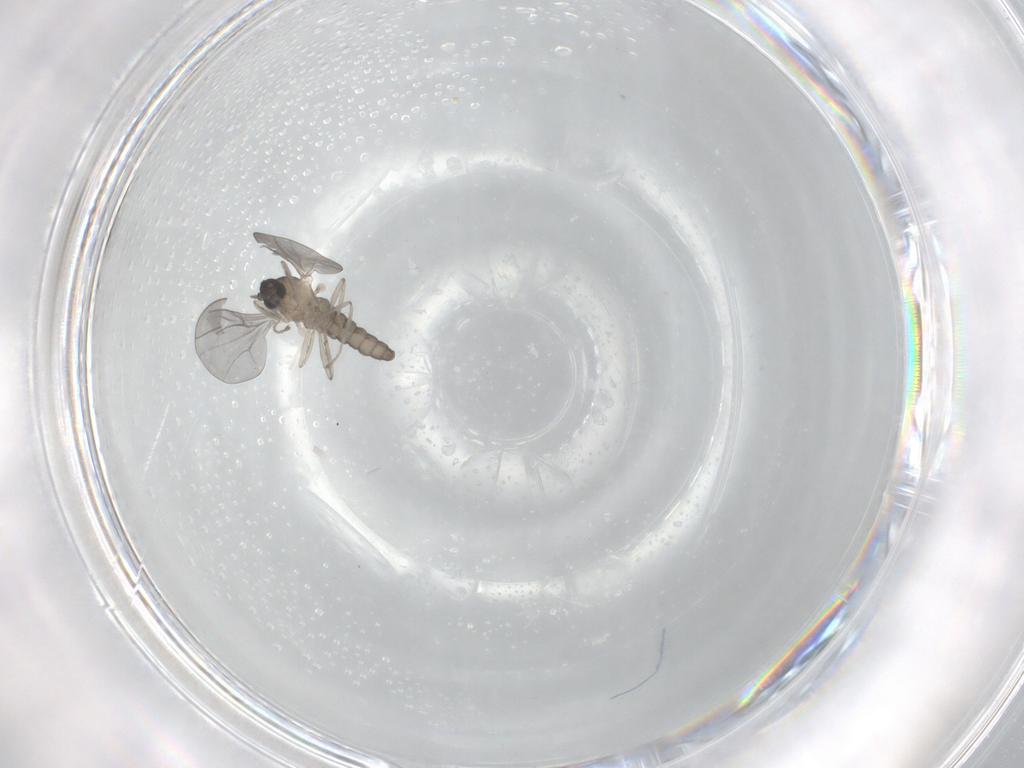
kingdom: Animalia
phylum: Arthropoda
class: Insecta
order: Diptera
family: Cecidomyiidae
